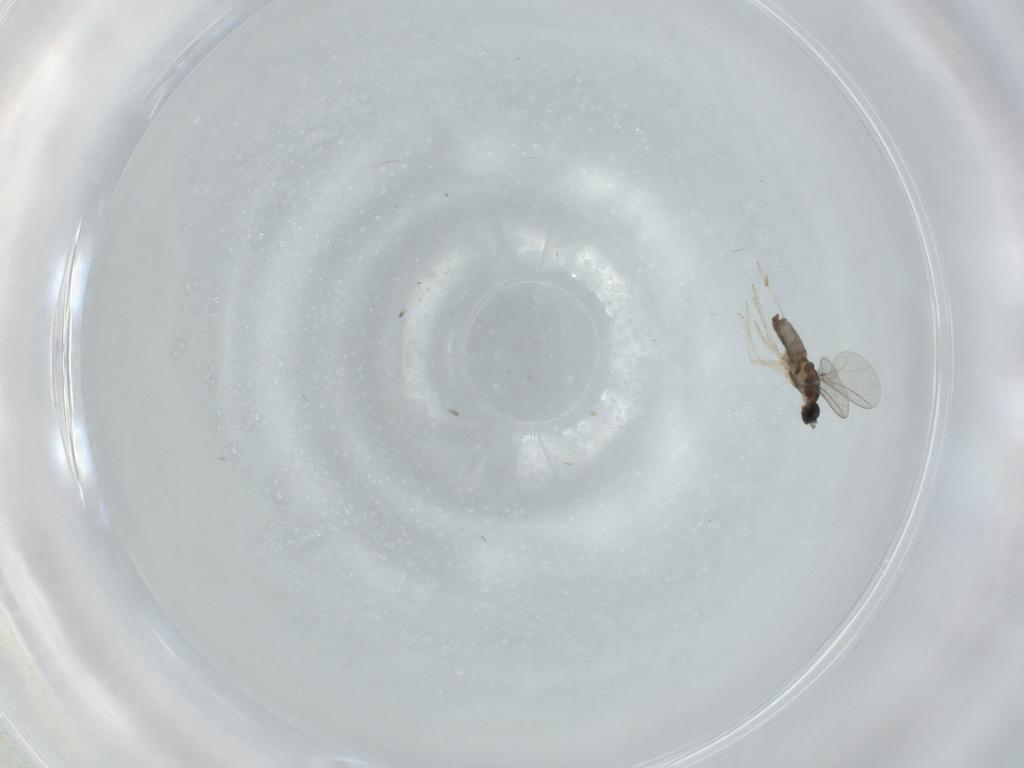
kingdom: Animalia
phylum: Arthropoda
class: Insecta
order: Diptera
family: Cecidomyiidae
